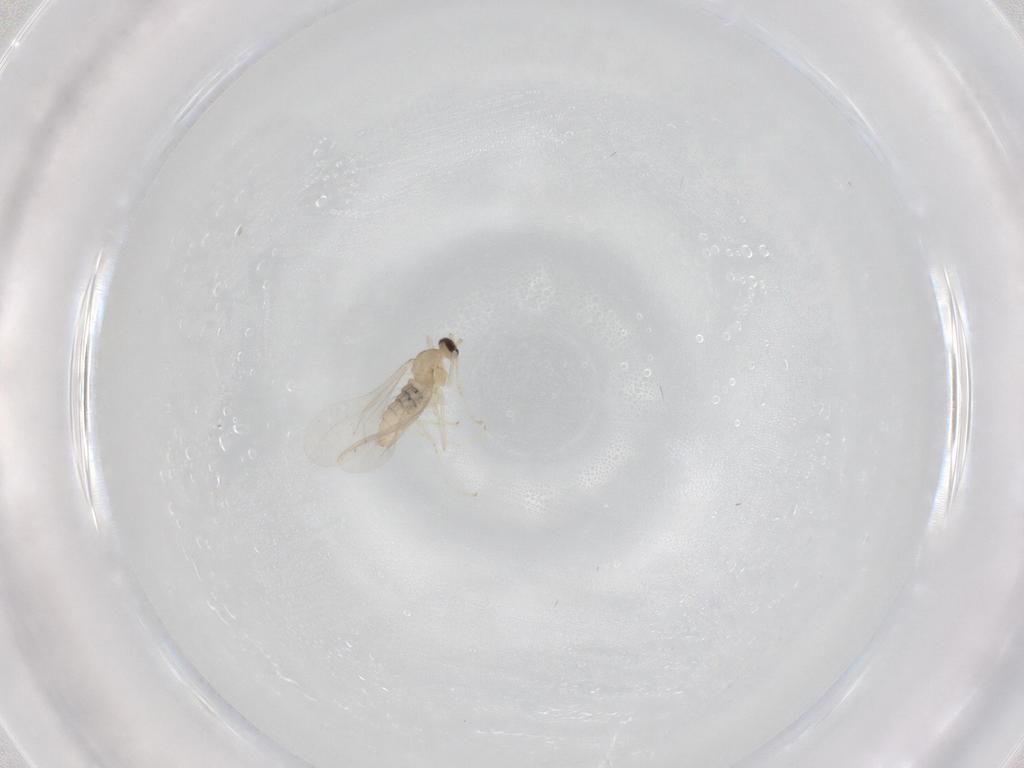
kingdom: Animalia
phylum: Arthropoda
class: Insecta
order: Diptera
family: Cecidomyiidae
